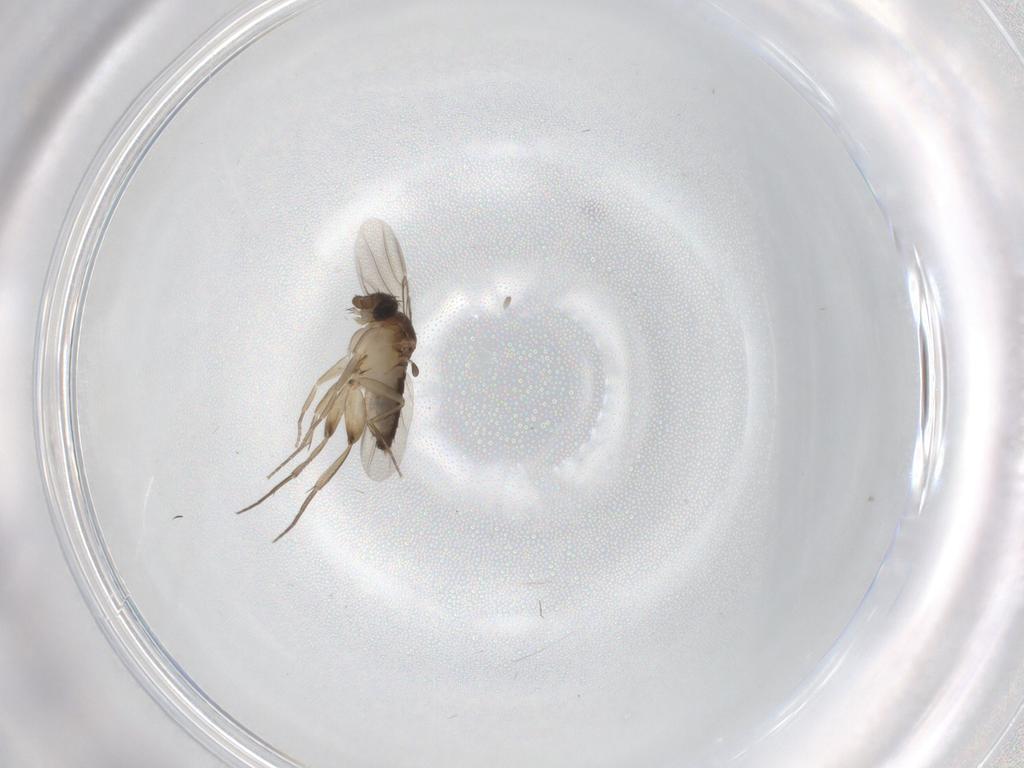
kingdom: Animalia
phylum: Arthropoda
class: Insecta
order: Diptera
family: Phoridae
